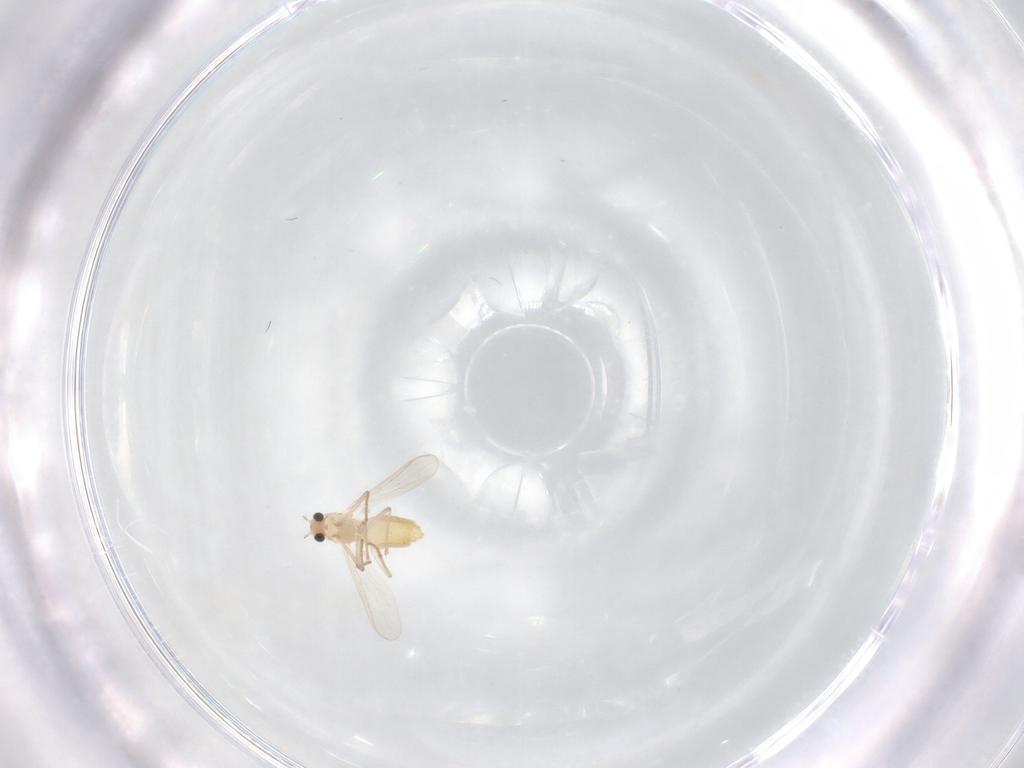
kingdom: Animalia
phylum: Arthropoda
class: Insecta
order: Diptera
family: Chironomidae
